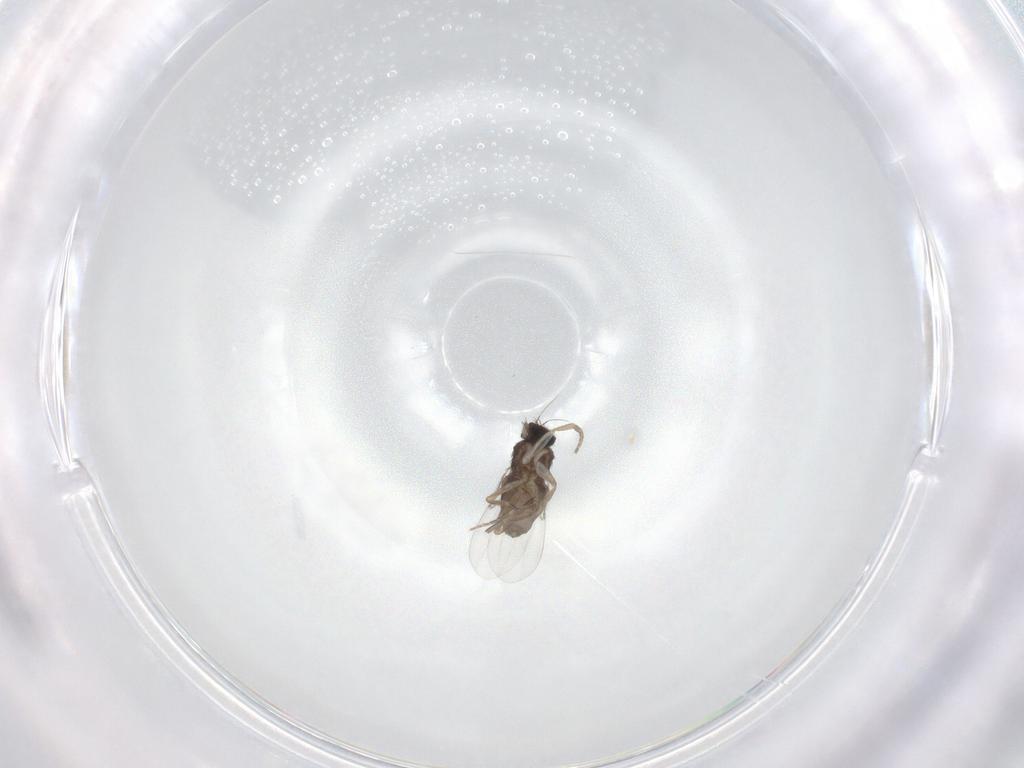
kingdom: Animalia
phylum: Arthropoda
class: Insecta
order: Diptera
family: Phoridae
